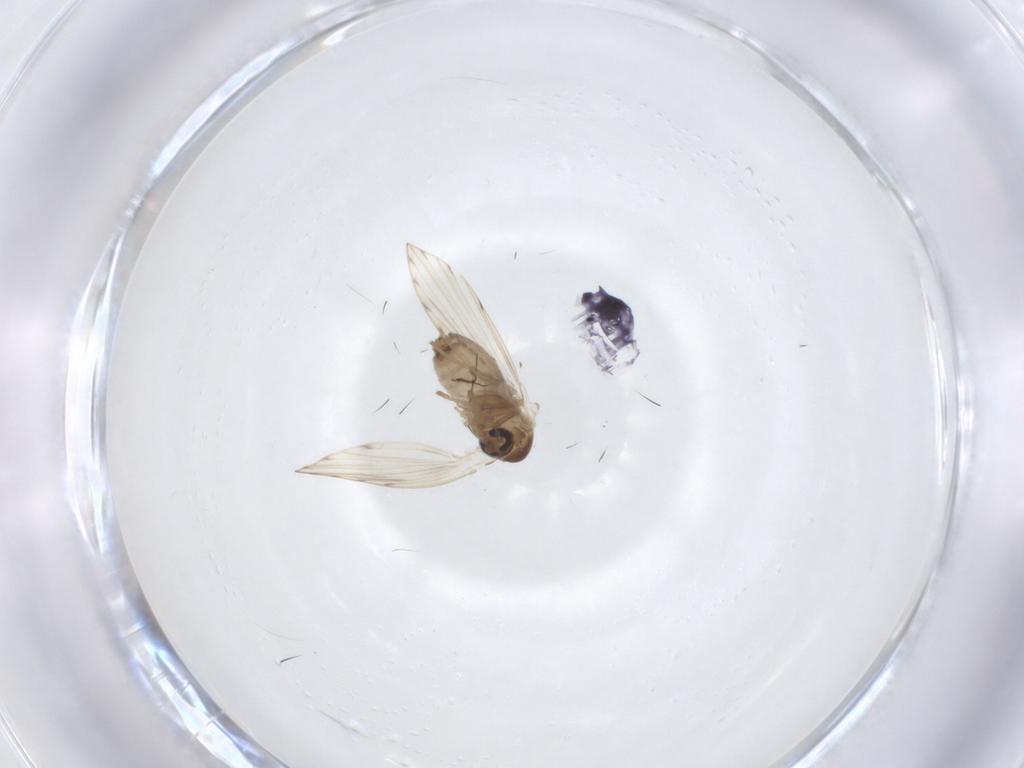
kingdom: Animalia
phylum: Arthropoda
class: Insecta
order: Diptera
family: Psychodidae
